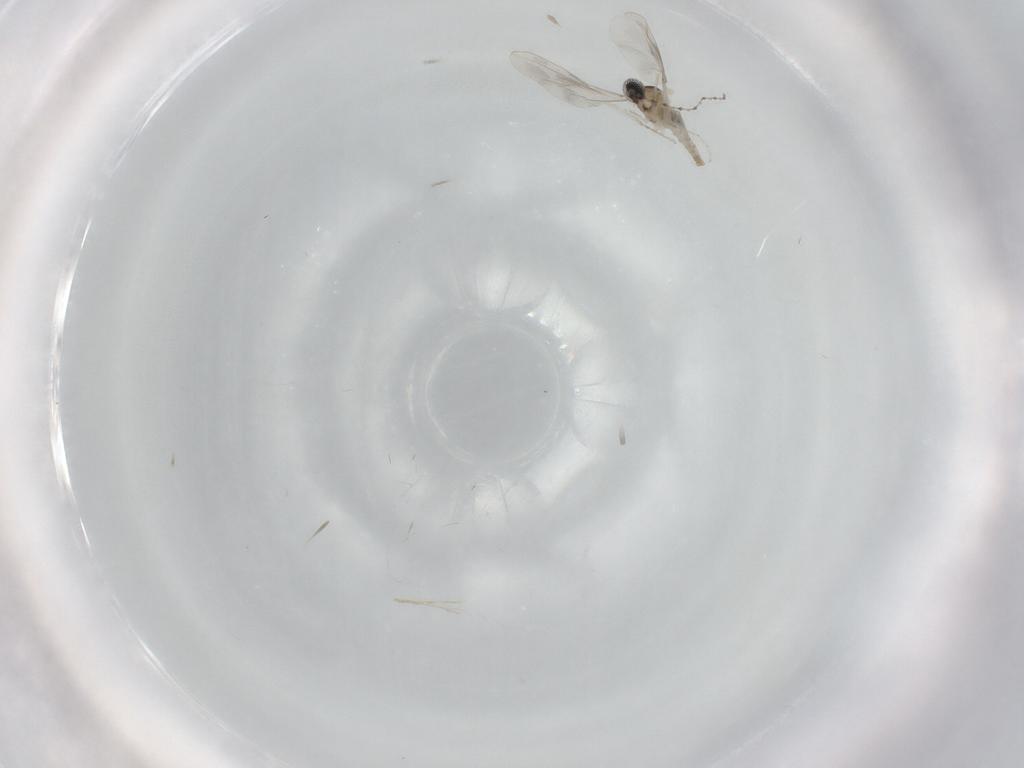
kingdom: Animalia
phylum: Arthropoda
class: Insecta
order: Diptera
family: Cecidomyiidae
